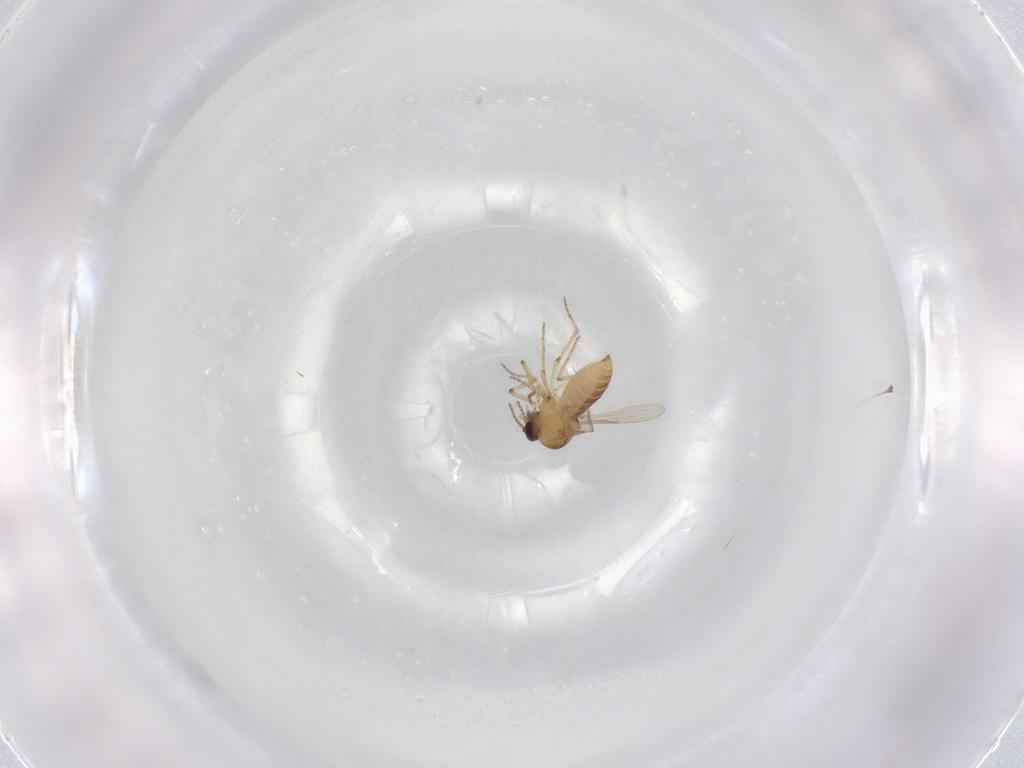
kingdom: Animalia
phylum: Arthropoda
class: Insecta
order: Diptera
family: Ceratopogonidae
